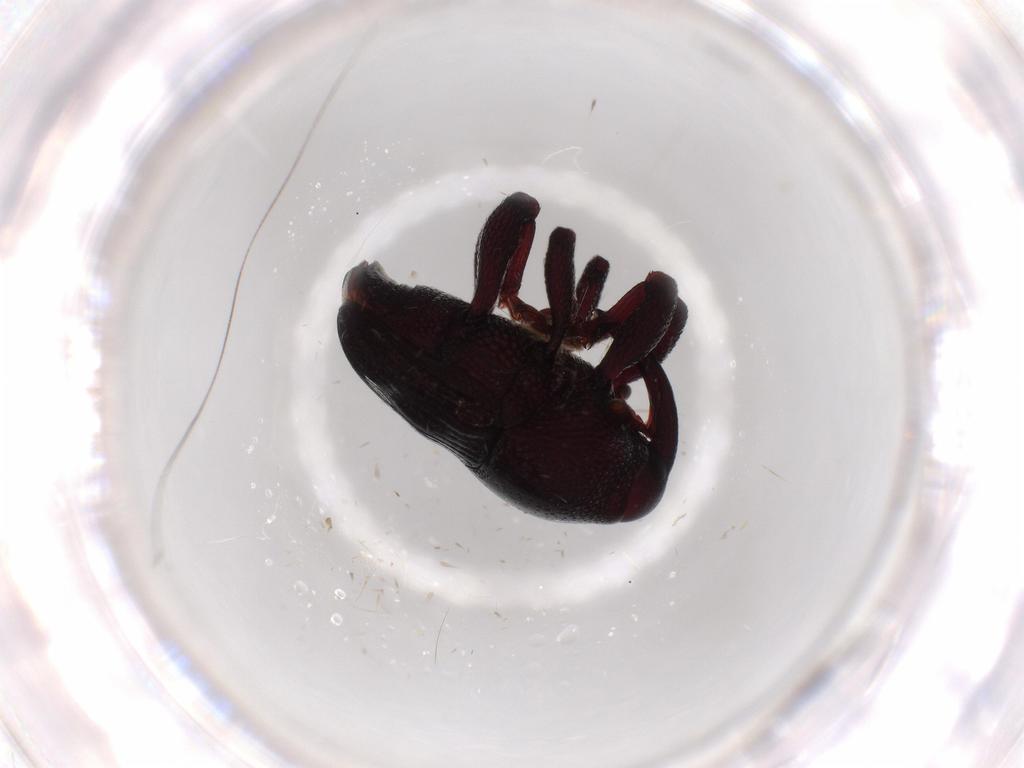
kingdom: Animalia
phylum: Arthropoda
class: Insecta
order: Coleoptera
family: Curculionidae
